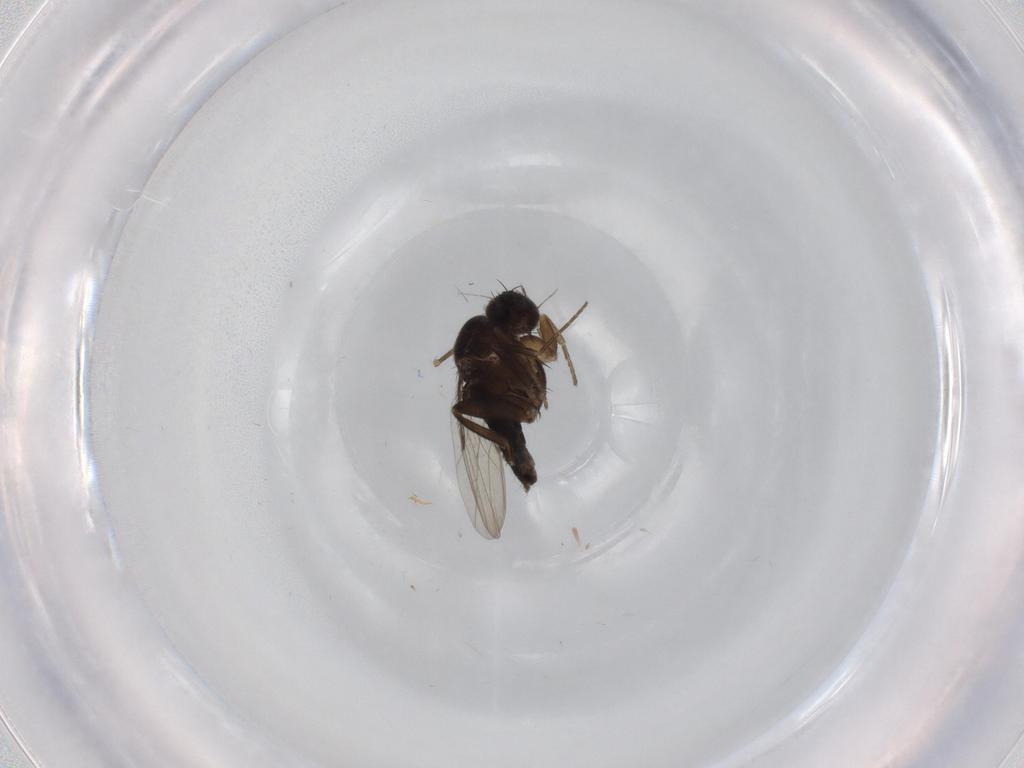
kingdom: Animalia
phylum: Arthropoda
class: Insecta
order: Diptera
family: Phoridae
